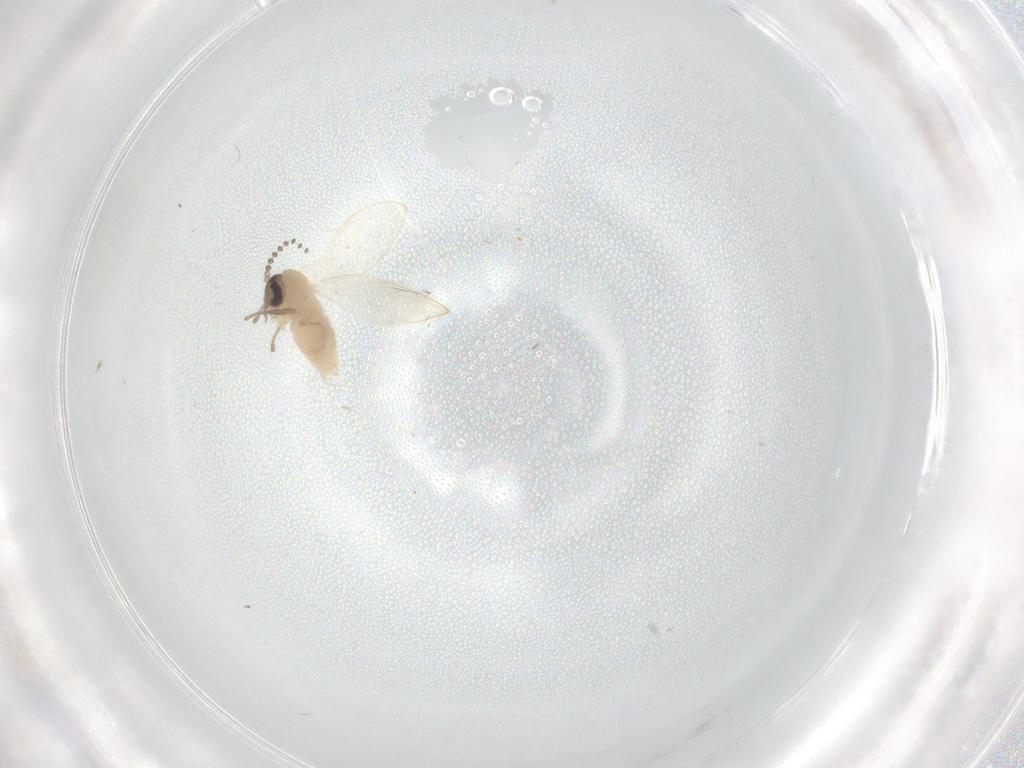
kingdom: Animalia
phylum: Arthropoda
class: Insecta
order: Diptera
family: Psychodidae
